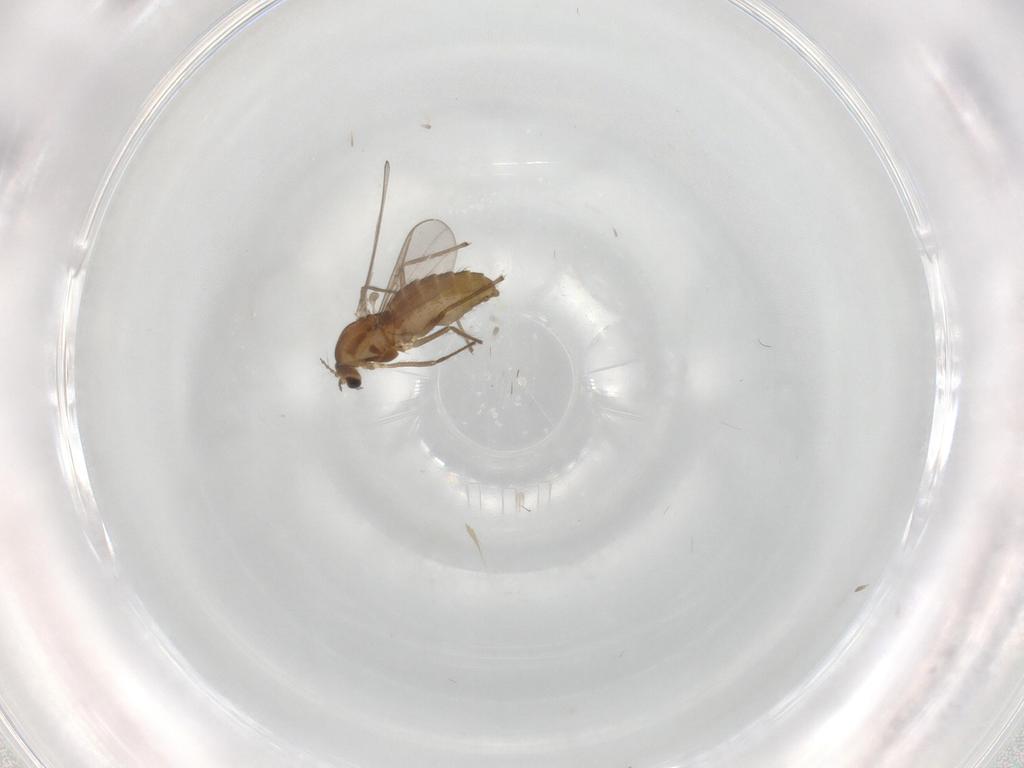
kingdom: Animalia
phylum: Arthropoda
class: Insecta
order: Diptera
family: Chironomidae
